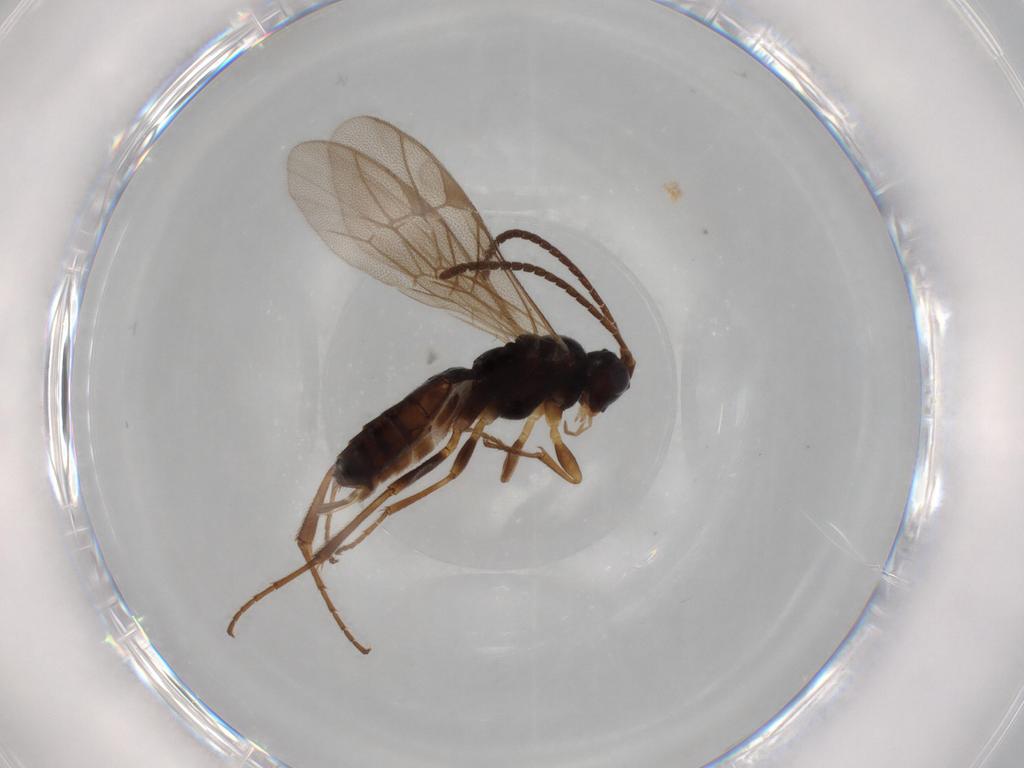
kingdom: Animalia
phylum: Arthropoda
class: Insecta
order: Hymenoptera
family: Ichneumonidae
